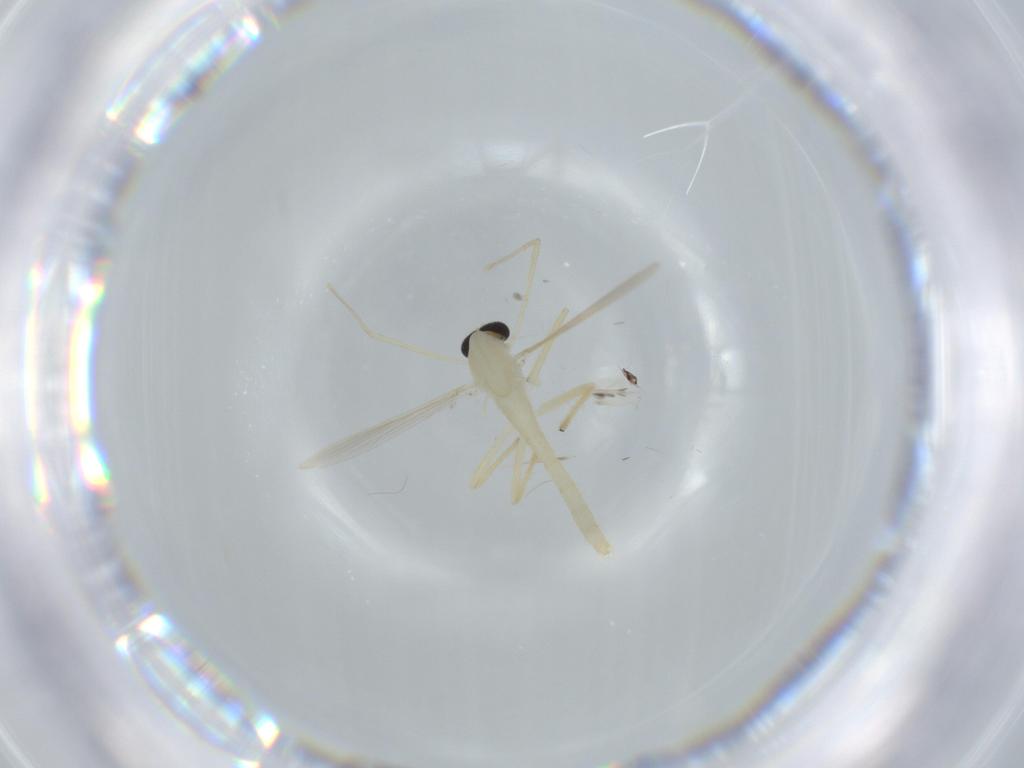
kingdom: Animalia
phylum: Arthropoda
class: Insecta
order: Diptera
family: Chironomidae
